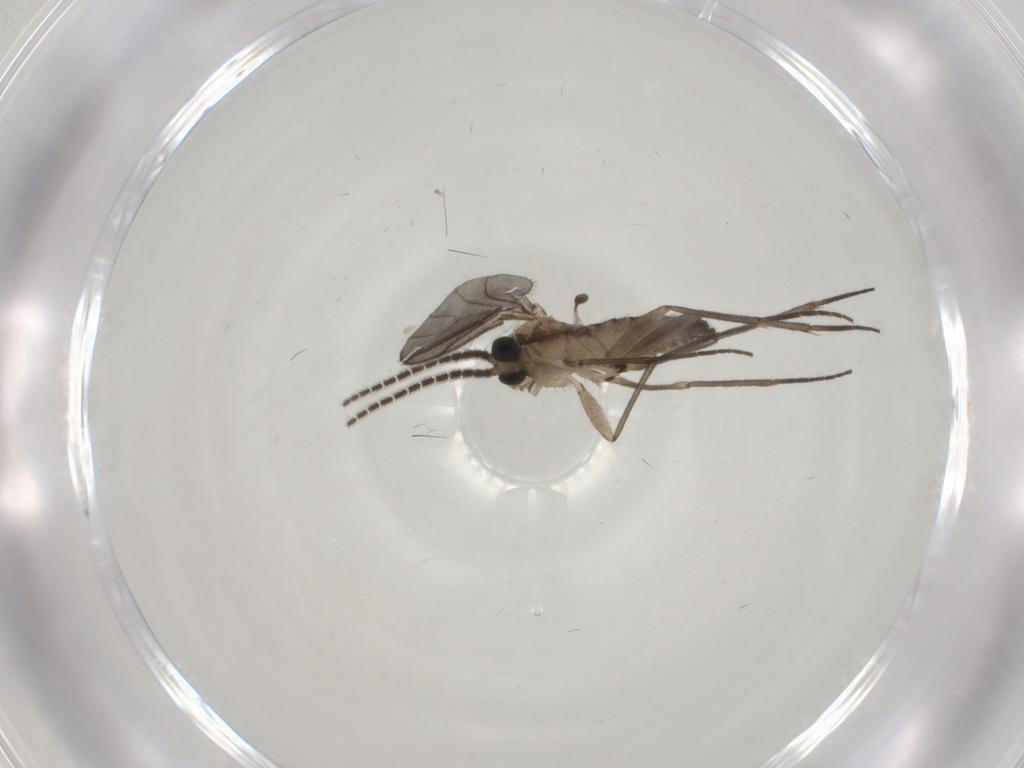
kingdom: Animalia
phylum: Arthropoda
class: Insecta
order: Diptera
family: Sciaridae
